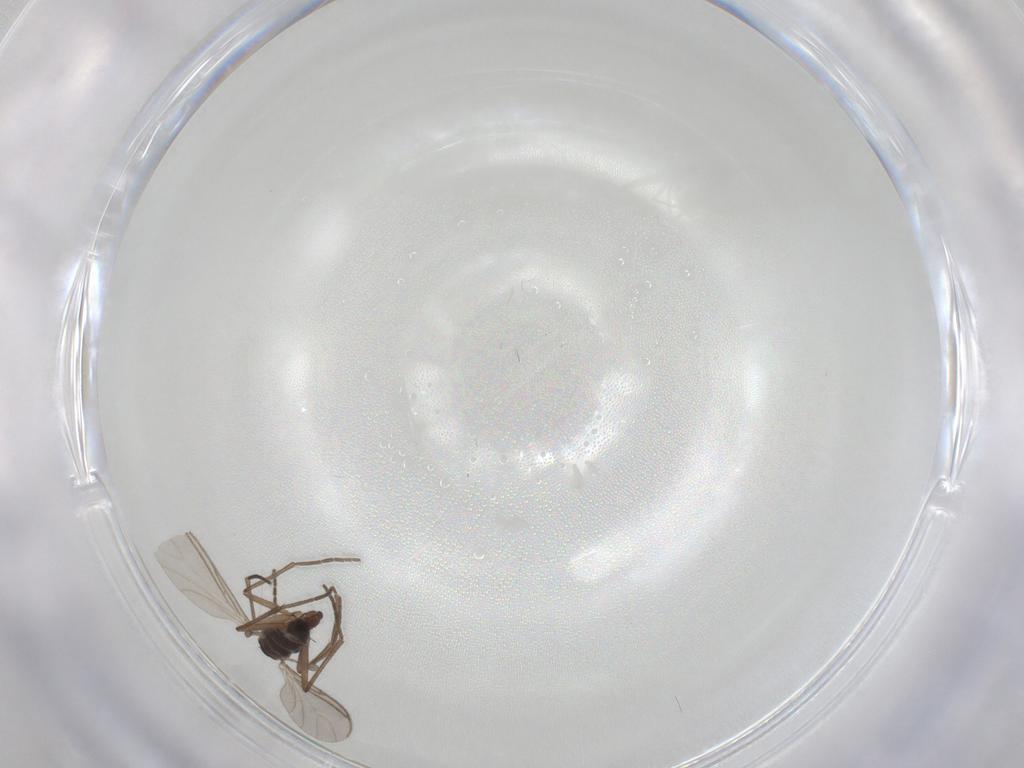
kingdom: Animalia
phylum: Arthropoda
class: Insecta
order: Diptera
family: Sciaridae
